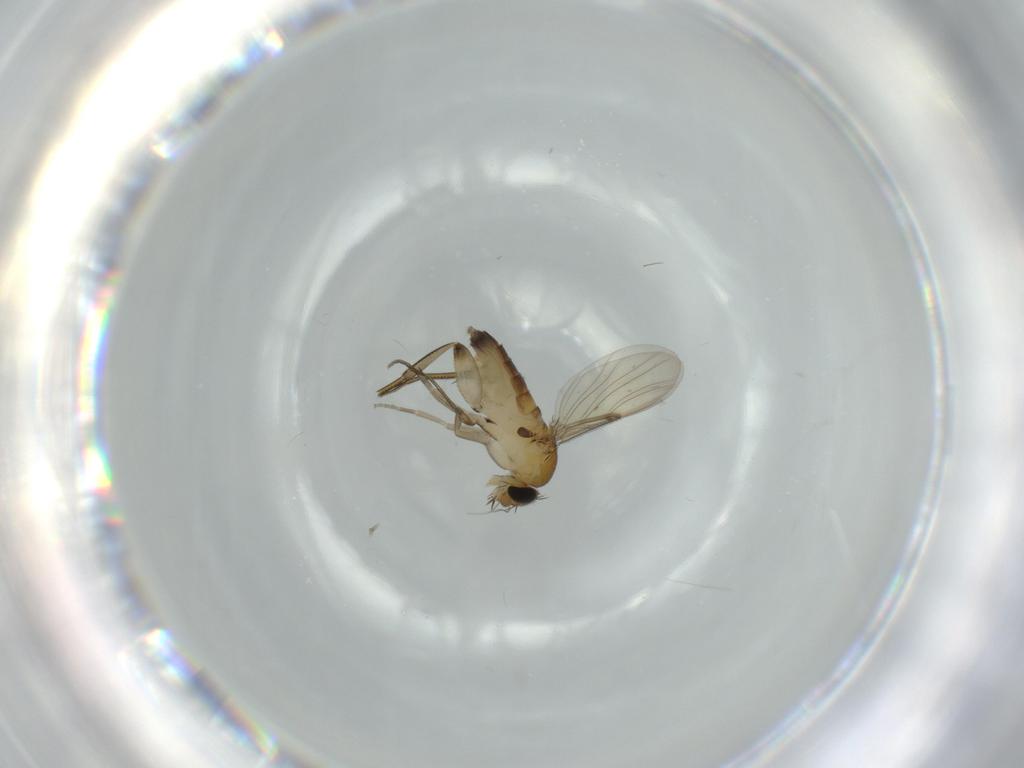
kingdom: Animalia
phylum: Arthropoda
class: Insecta
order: Diptera
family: Phoridae
